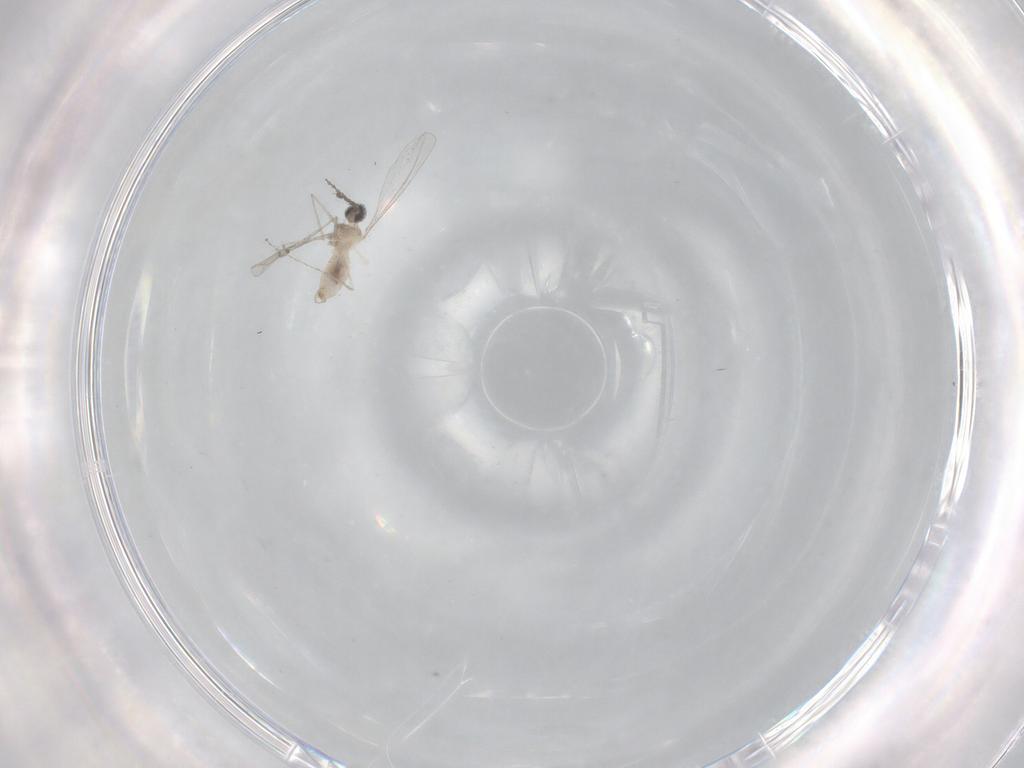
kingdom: Animalia
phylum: Arthropoda
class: Insecta
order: Diptera
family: Cecidomyiidae
